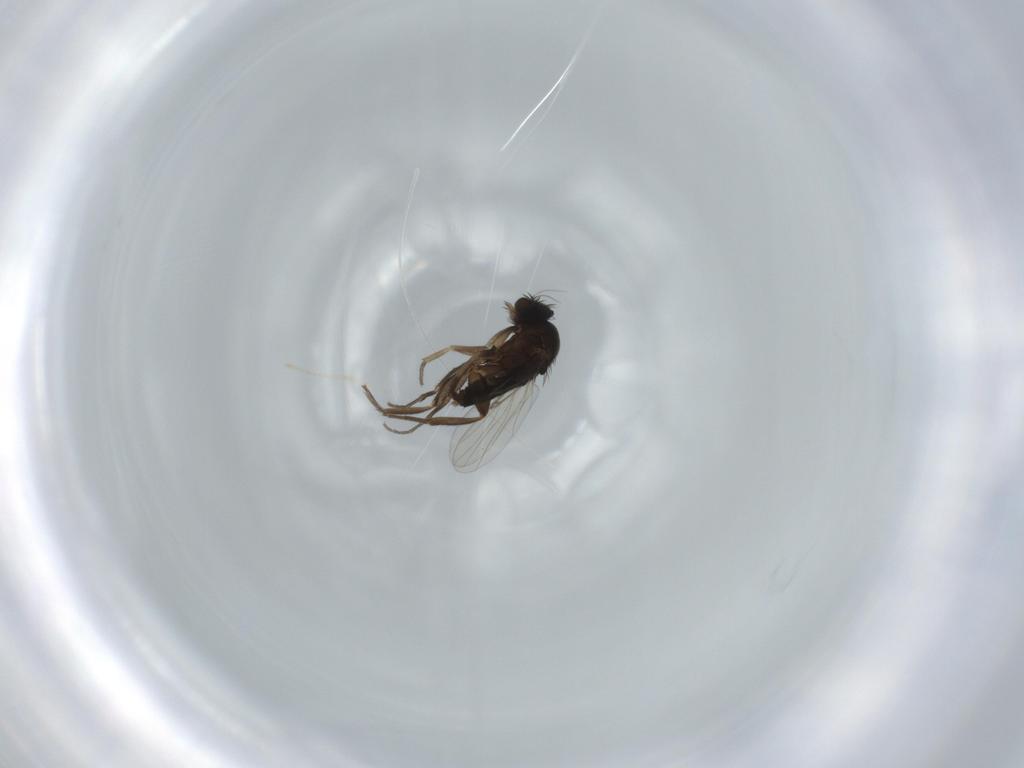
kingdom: Animalia
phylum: Arthropoda
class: Insecta
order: Diptera
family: Phoridae
